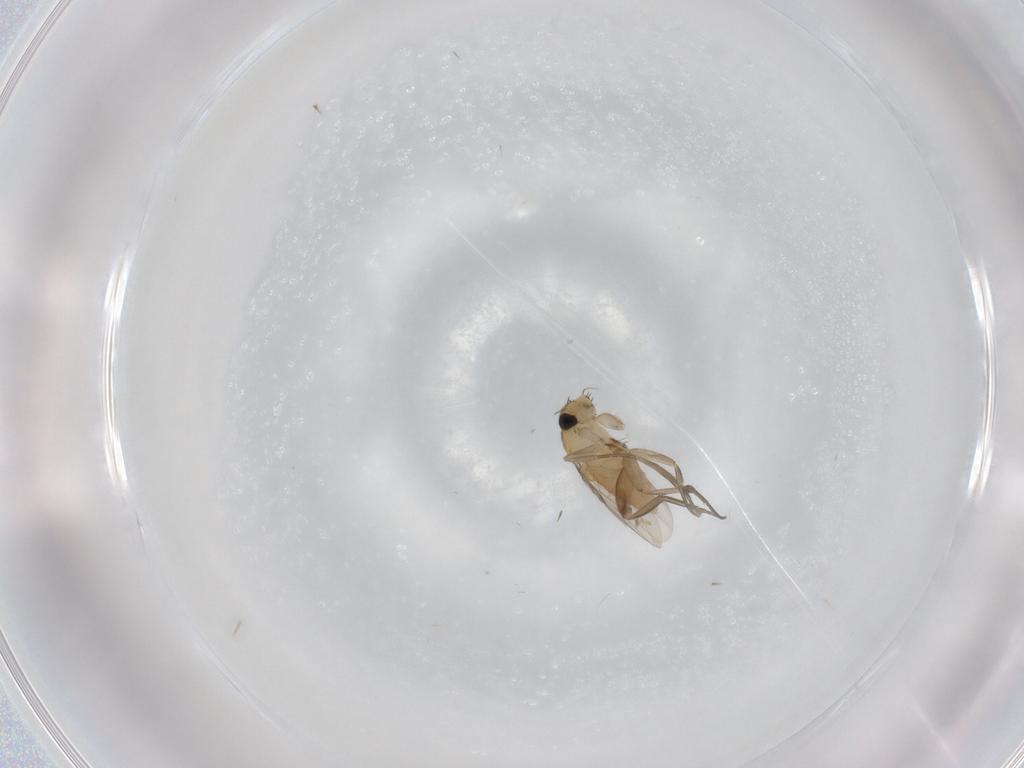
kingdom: Animalia
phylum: Arthropoda
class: Insecta
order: Diptera
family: Phoridae
